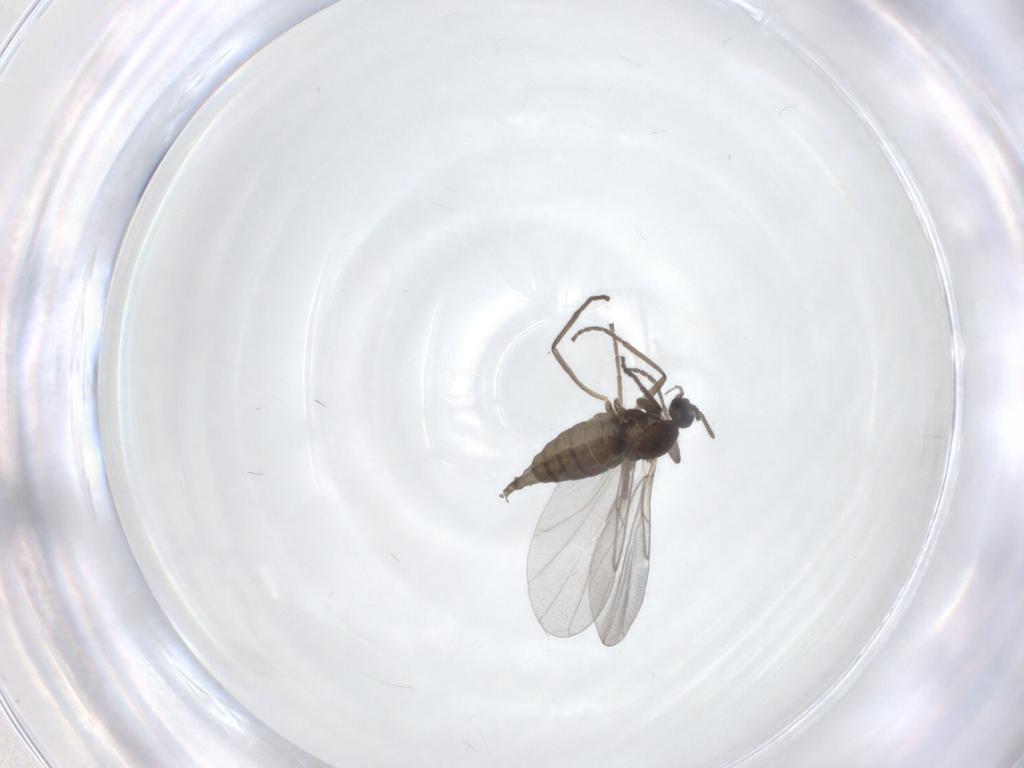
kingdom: Animalia
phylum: Arthropoda
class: Insecta
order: Diptera
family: Cecidomyiidae
